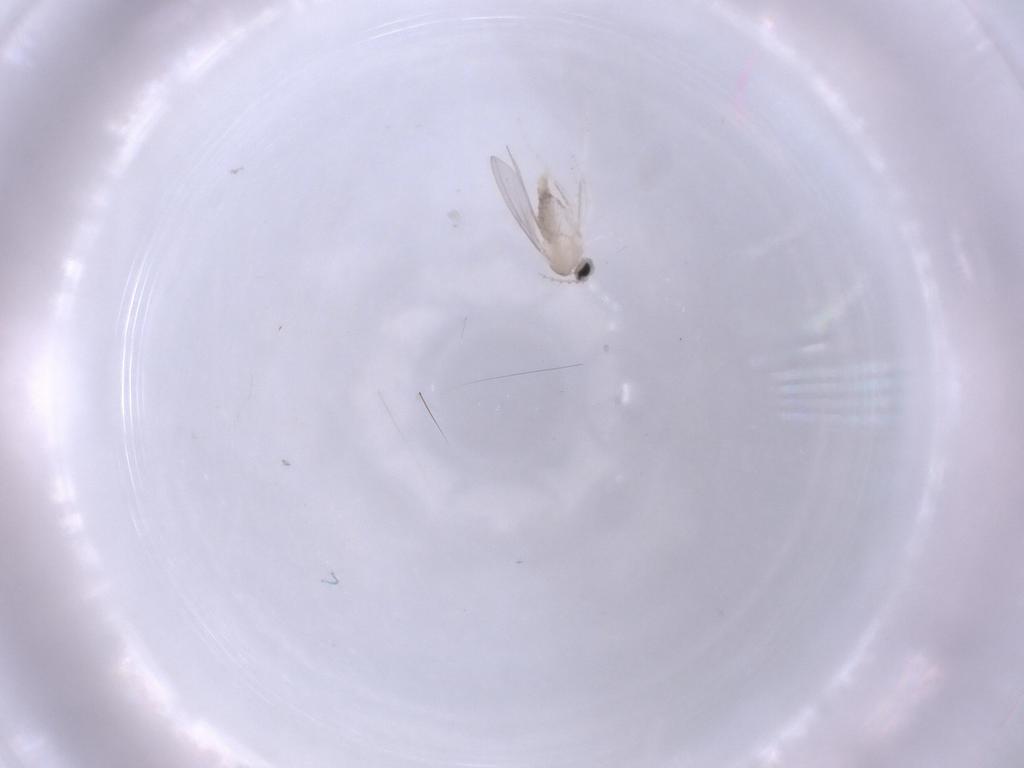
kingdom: Animalia
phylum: Arthropoda
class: Insecta
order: Diptera
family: Cecidomyiidae
